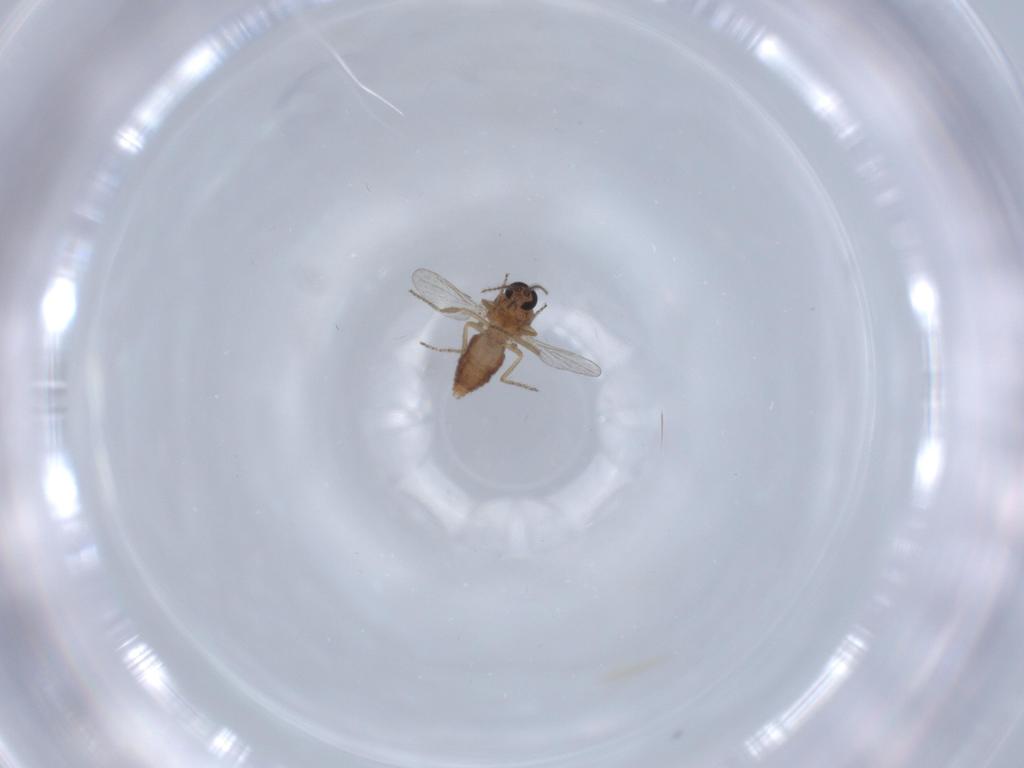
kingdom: Animalia
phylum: Arthropoda
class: Insecta
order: Diptera
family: Ceratopogonidae
